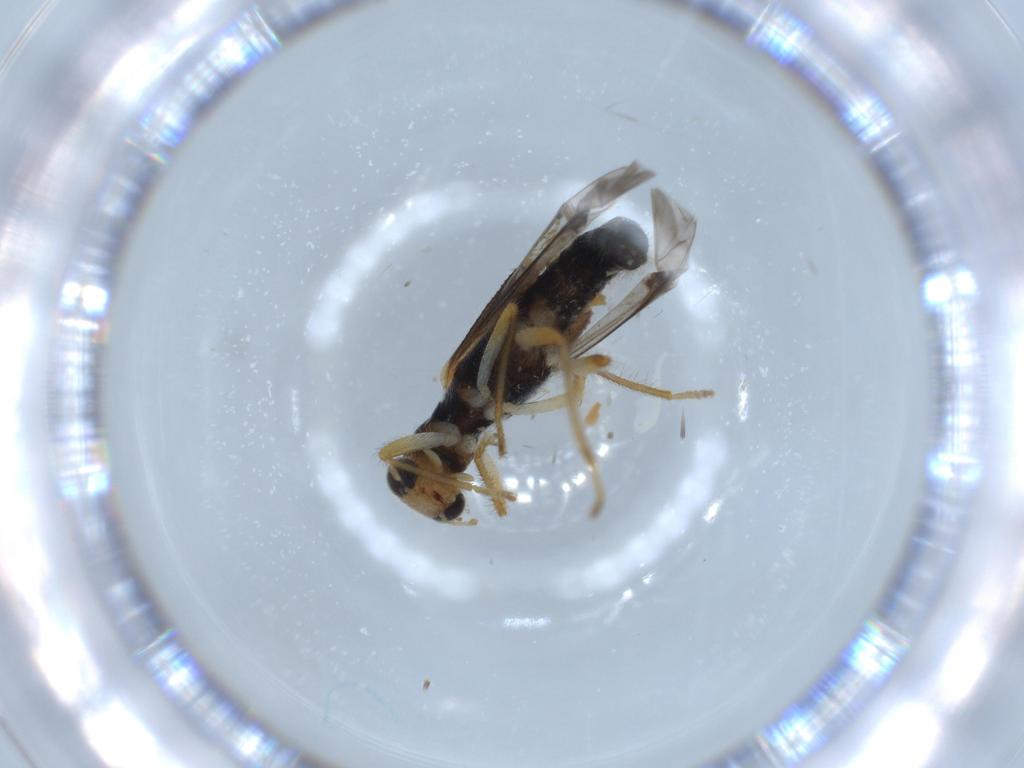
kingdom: Animalia
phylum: Arthropoda
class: Insecta
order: Coleoptera
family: Cleridae
